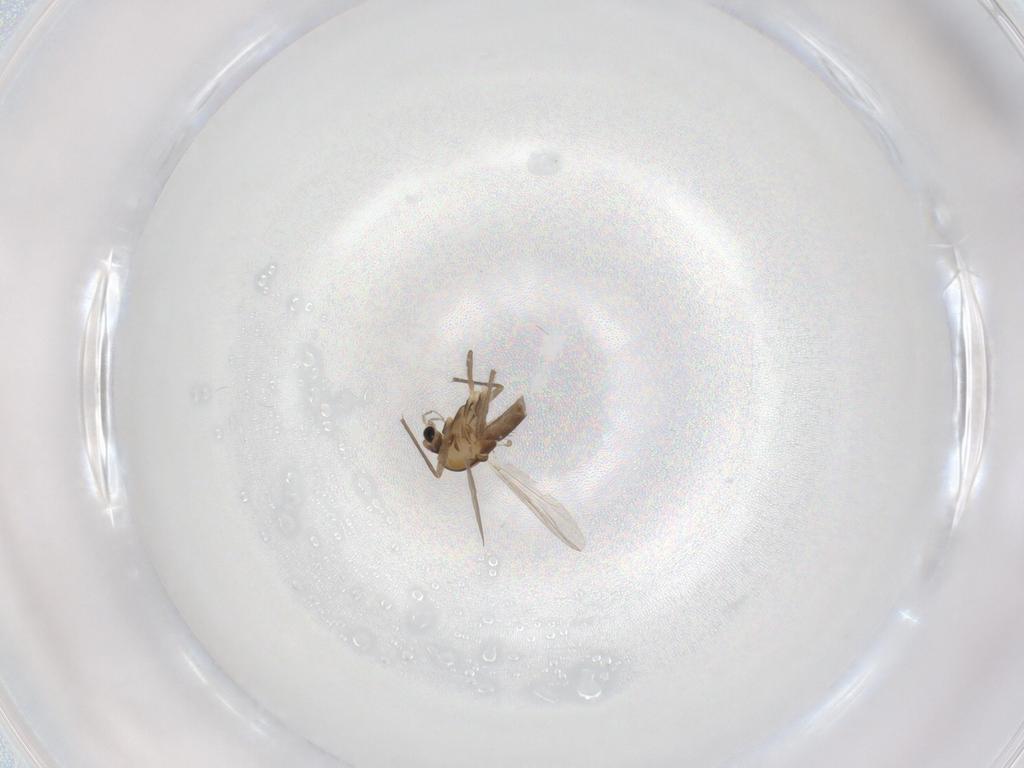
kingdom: Animalia
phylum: Arthropoda
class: Insecta
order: Diptera
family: Chironomidae
